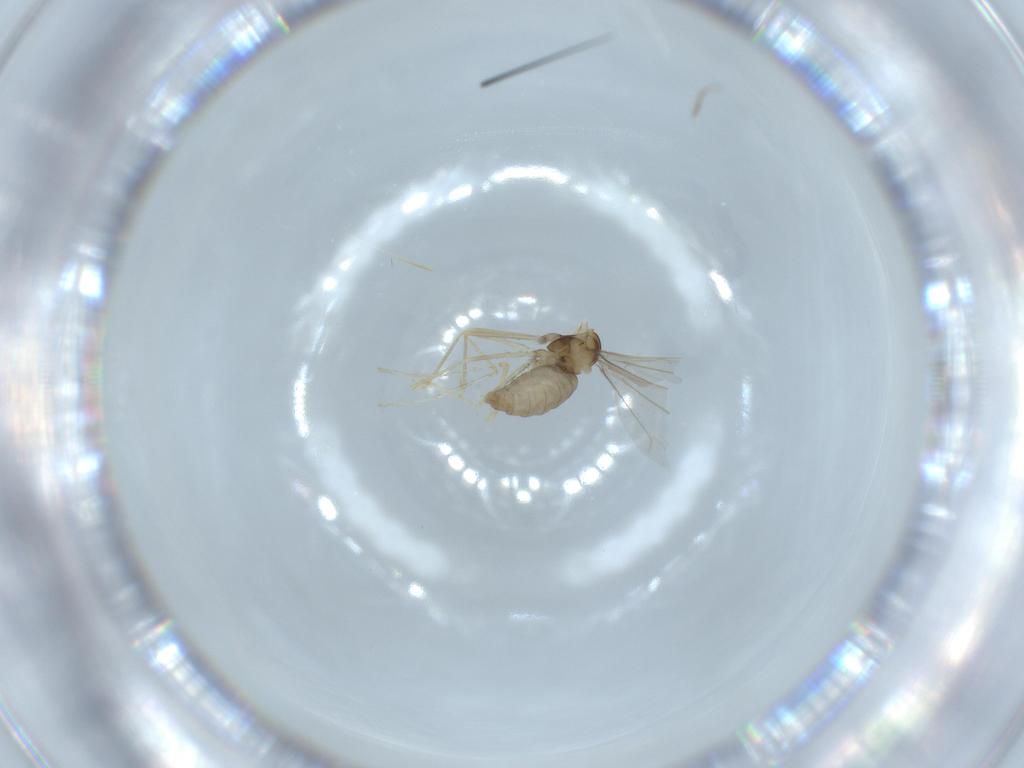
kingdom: Animalia
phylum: Arthropoda
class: Insecta
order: Diptera
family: Cecidomyiidae
